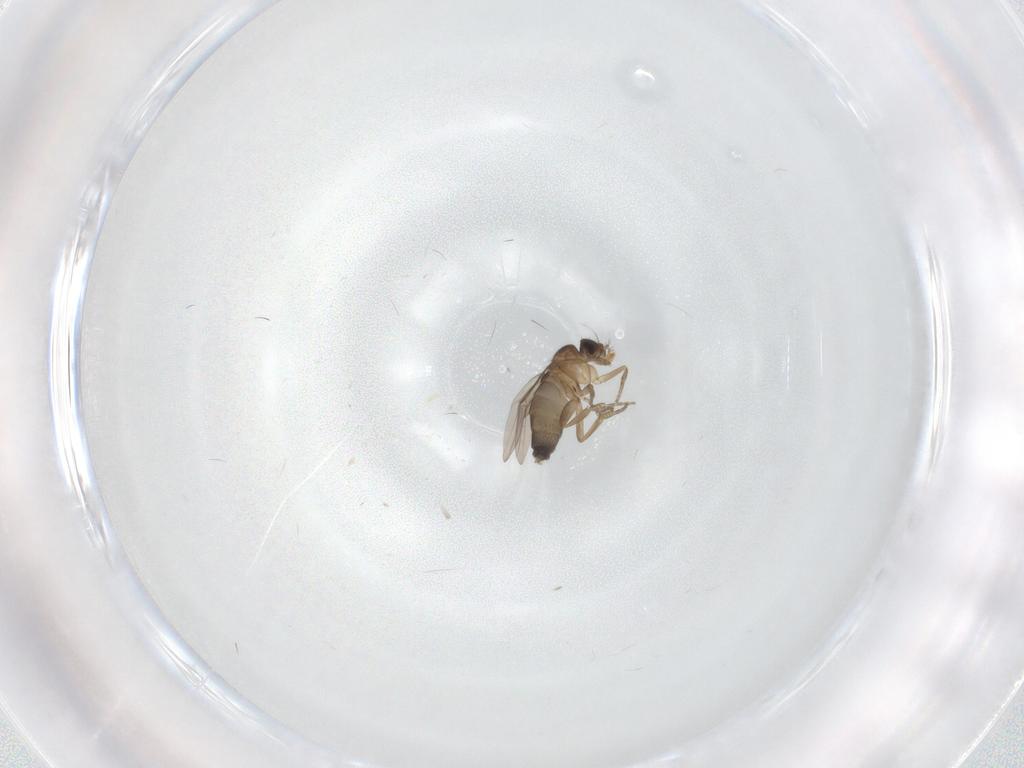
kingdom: Animalia
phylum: Arthropoda
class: Insecta
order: Diptera
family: Phoridae
